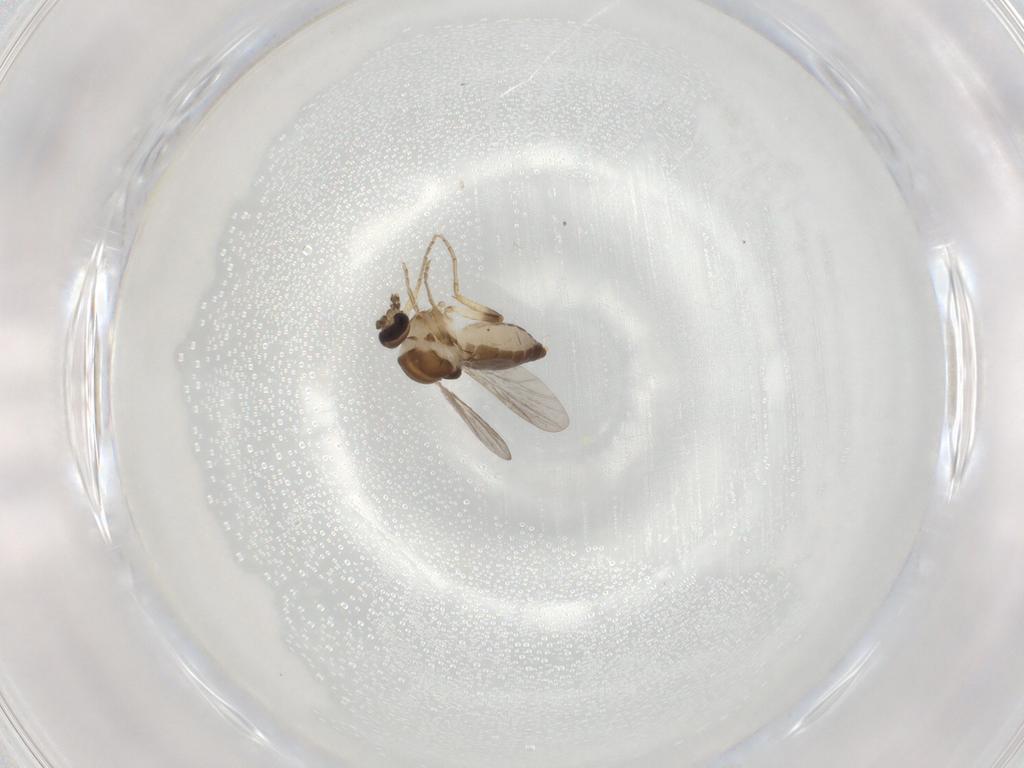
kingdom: Animalia
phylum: Arthropoda
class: Insecta
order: Diptera
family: Ceratopogonidae
